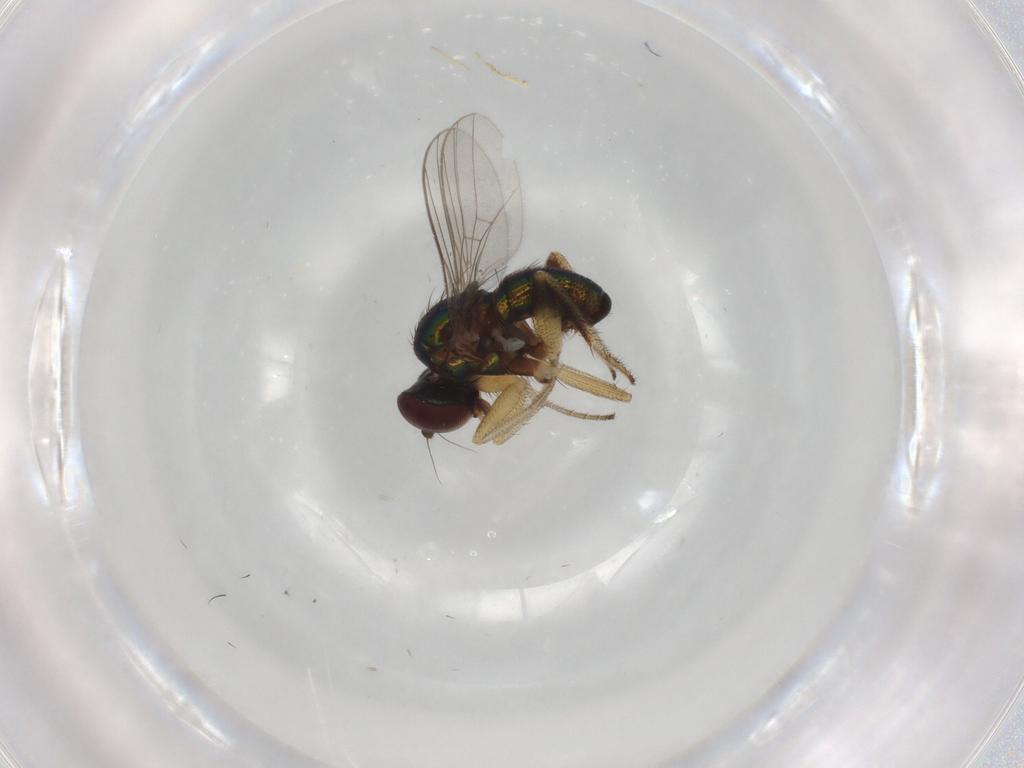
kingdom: Animalia
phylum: Arthropoda
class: Insecta
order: Diptera
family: Dolichopodidae
